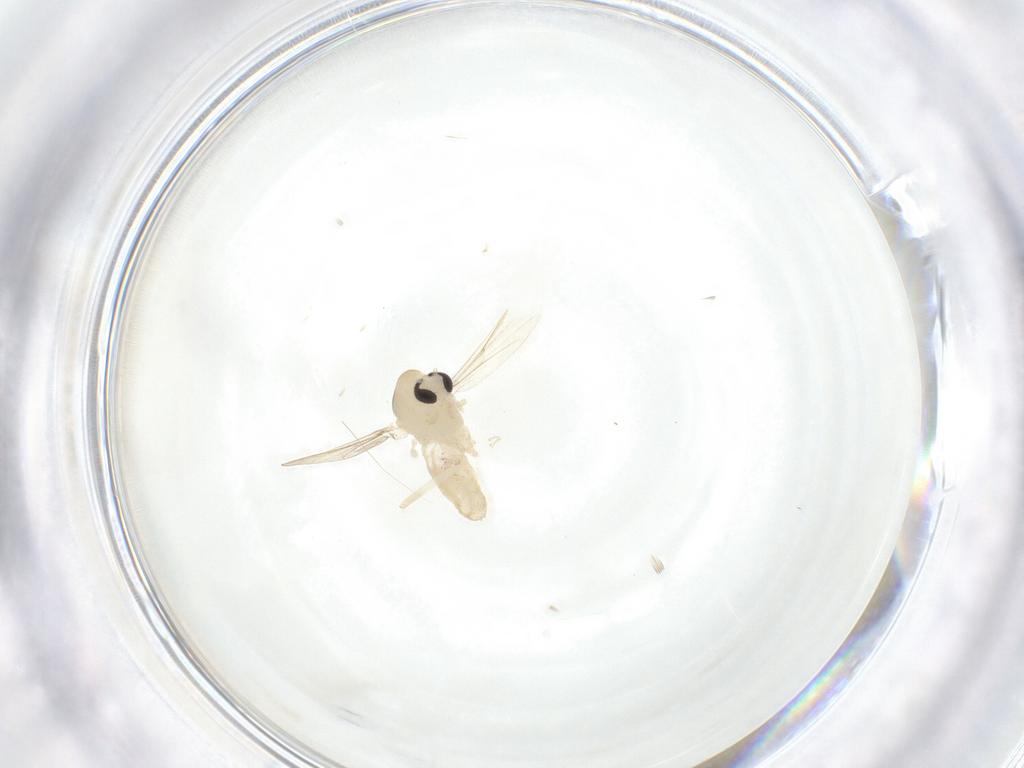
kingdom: Animalia
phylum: Arthropoda
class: Insecta
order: Diptera
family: Chironomidae
